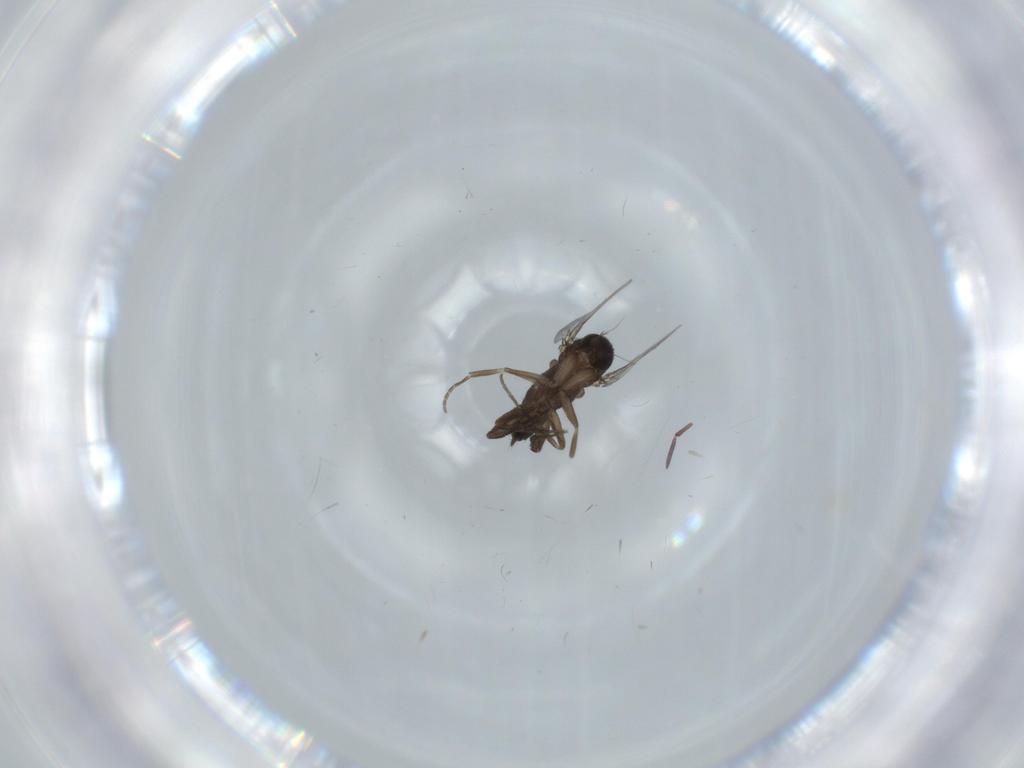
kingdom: Animalia
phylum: Arthropoda
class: Insecta
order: Diptera
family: Phoridae
